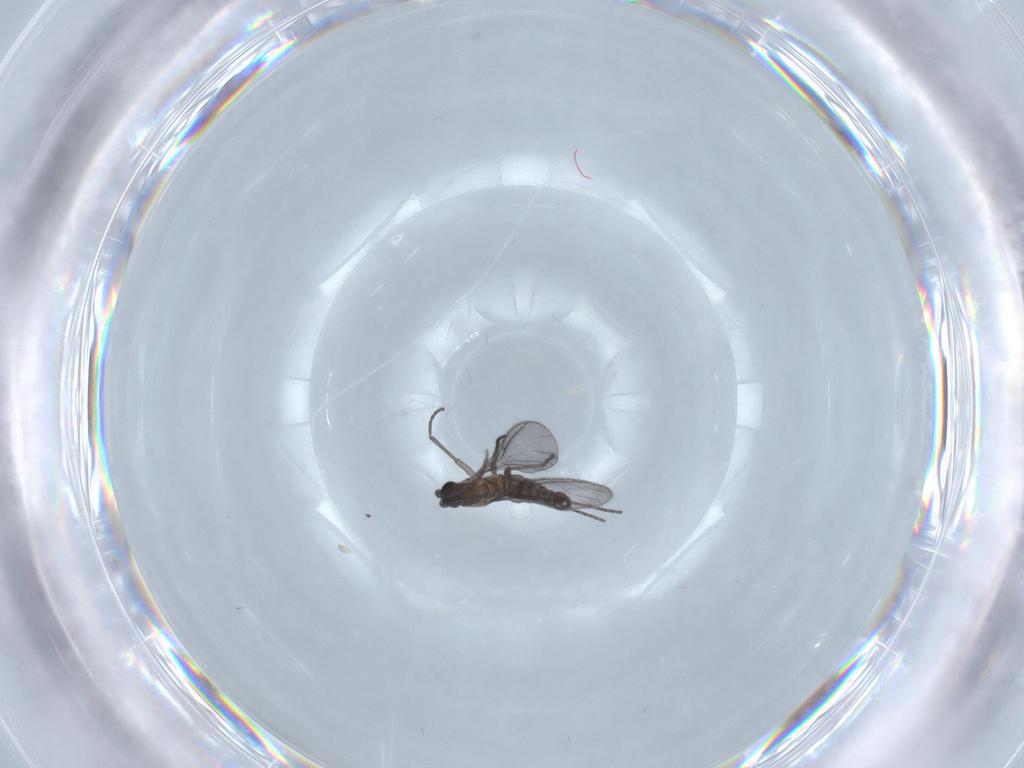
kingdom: Animalia
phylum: Arthropoda
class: Insecta
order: Diptera
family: Sciaridae
